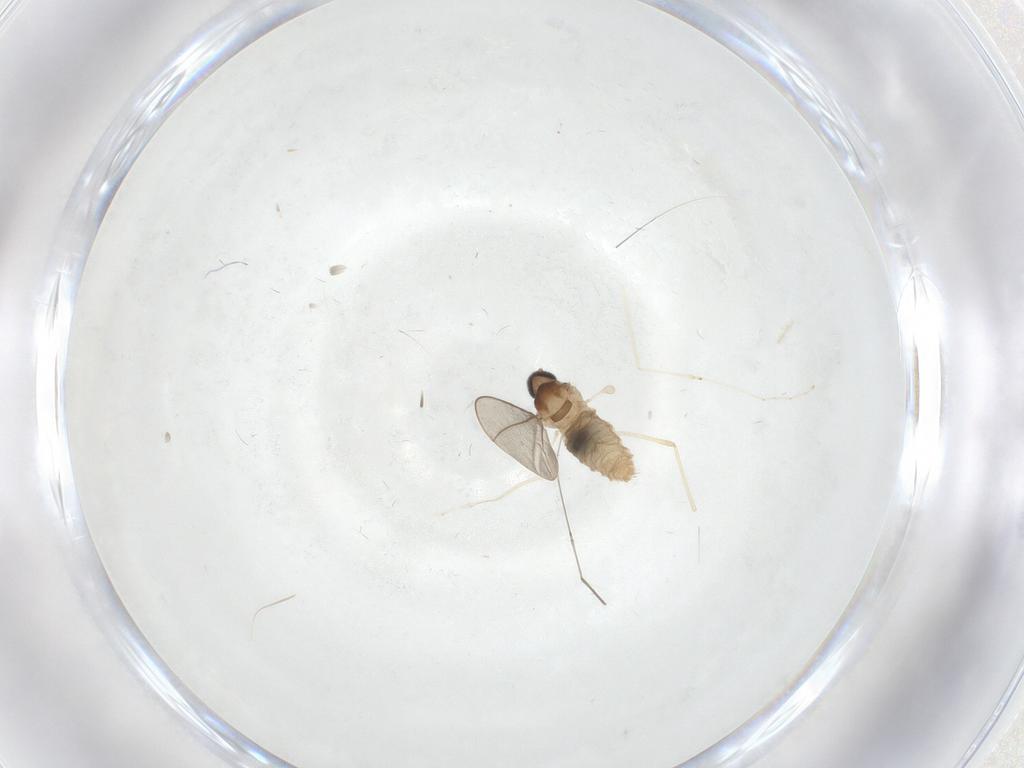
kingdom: Animalia
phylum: Arthropoda
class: Insecta
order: Diptera
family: Cecidomyiidae
